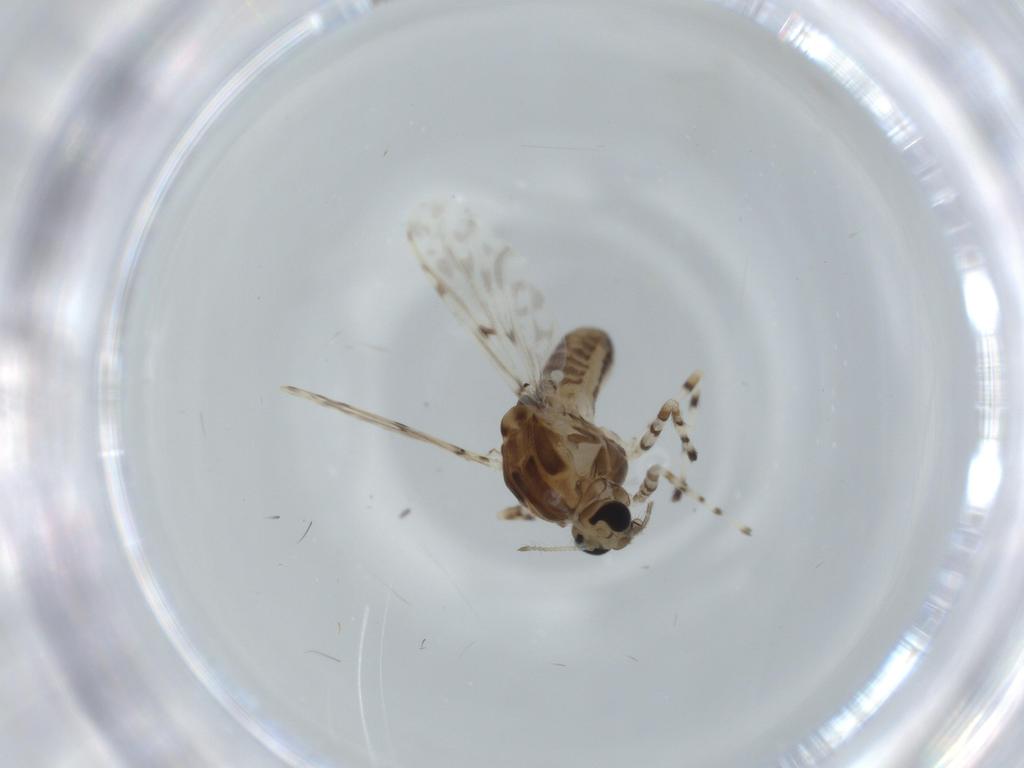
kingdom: Animalia
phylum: Arthropoda
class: Insecta
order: Diptera
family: Chironomidae
